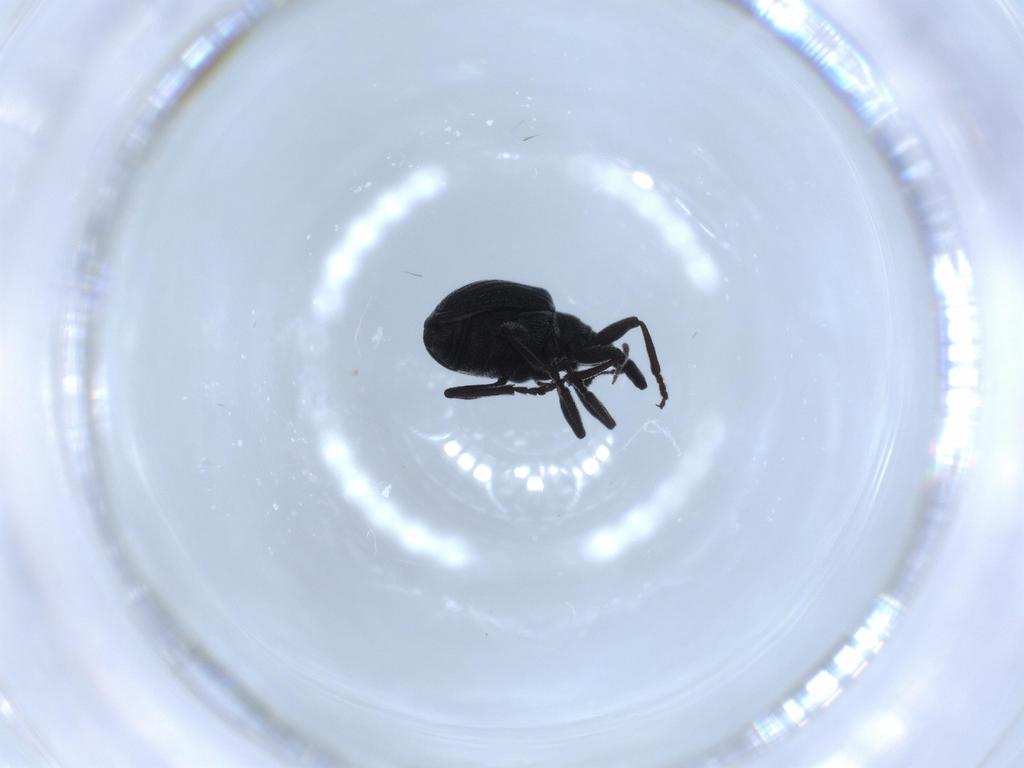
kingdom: Animalia
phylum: Arthropoda
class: Insecta
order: Coleoptera
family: Brentidae
